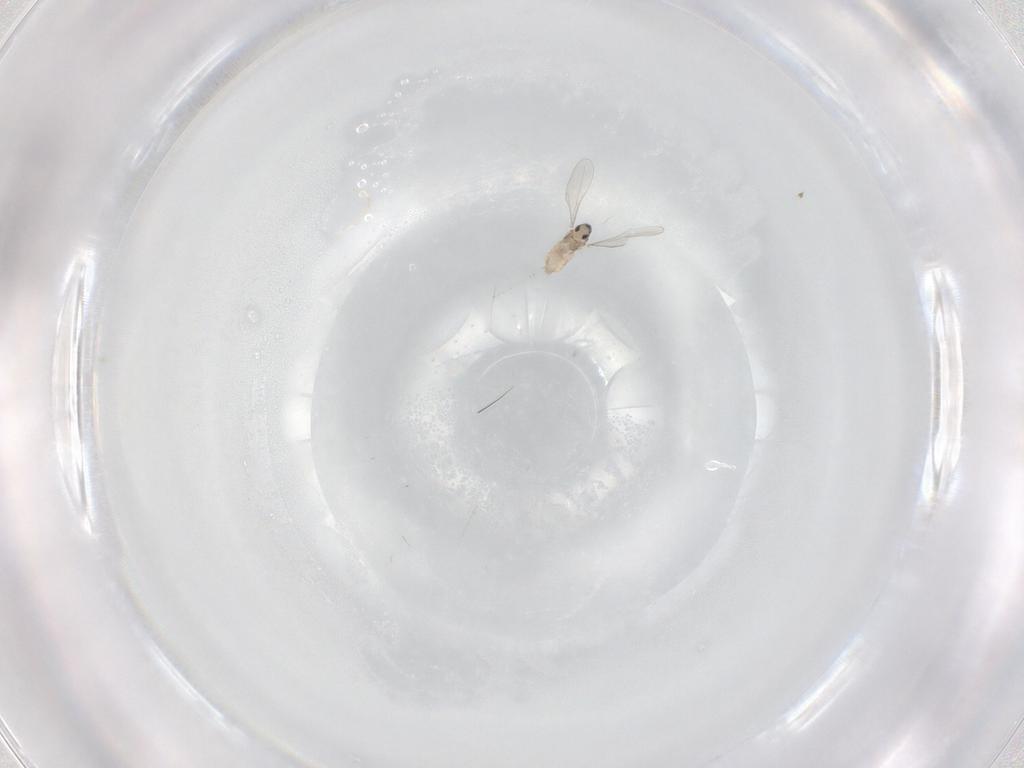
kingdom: Animalia
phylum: Arthropoda
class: Insecta
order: Diptera
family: Cecidomyiidae
